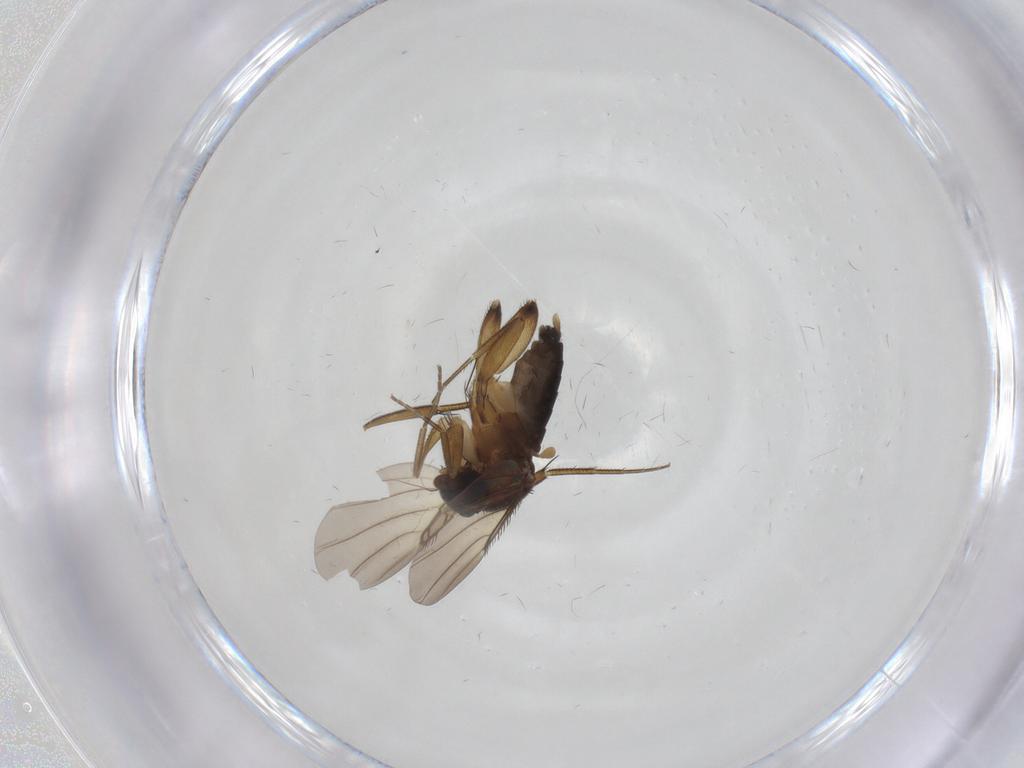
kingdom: Animalia
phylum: Arthropoda
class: Insecta
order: Diptera
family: Phoridae
